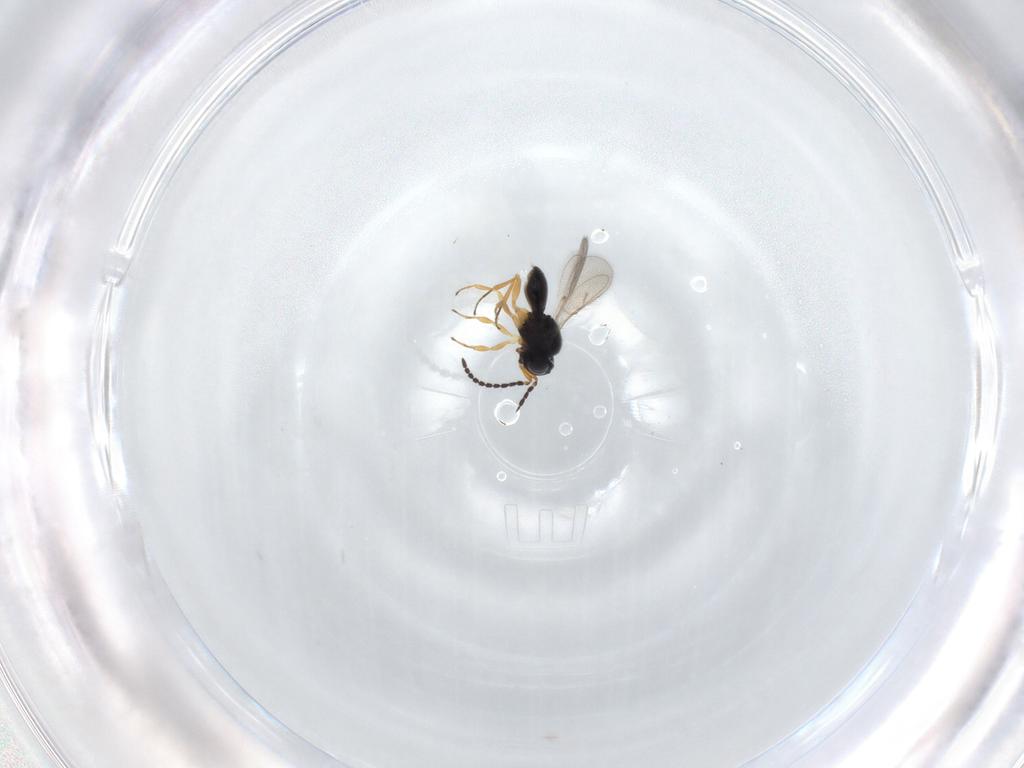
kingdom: Animalia
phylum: Arthropoda
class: Insecta
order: Hymenoptera
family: Scelionidae
